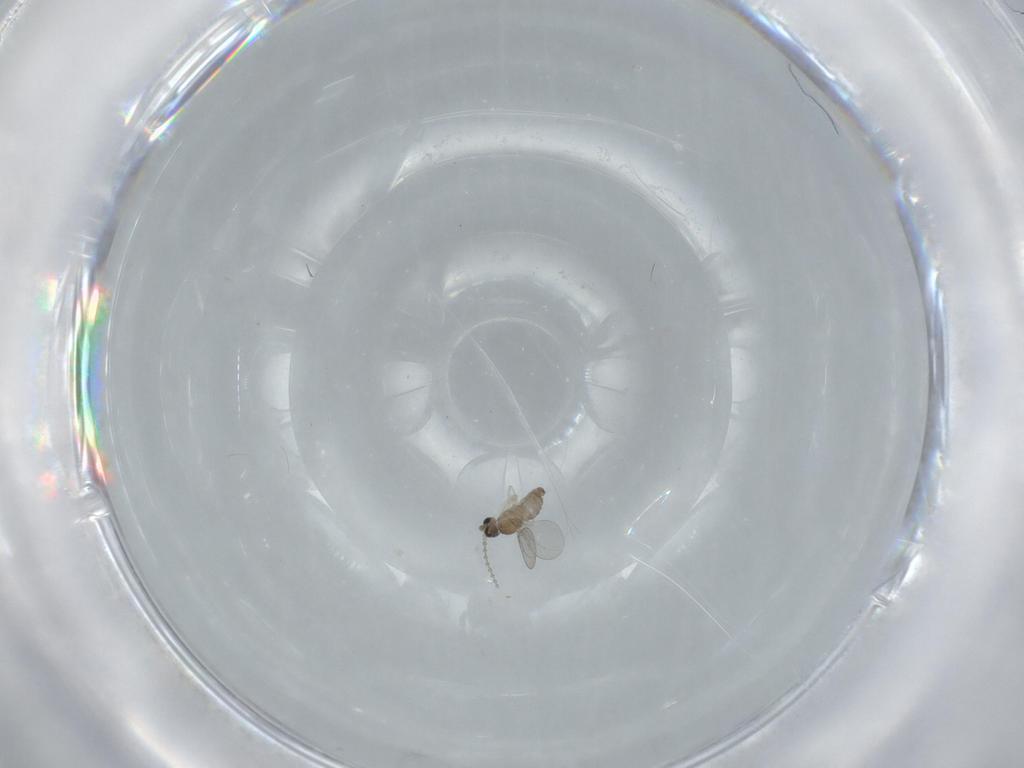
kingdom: Animalia
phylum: Arthropoda
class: Insecta
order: Diptera
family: Cecidomyiidae
